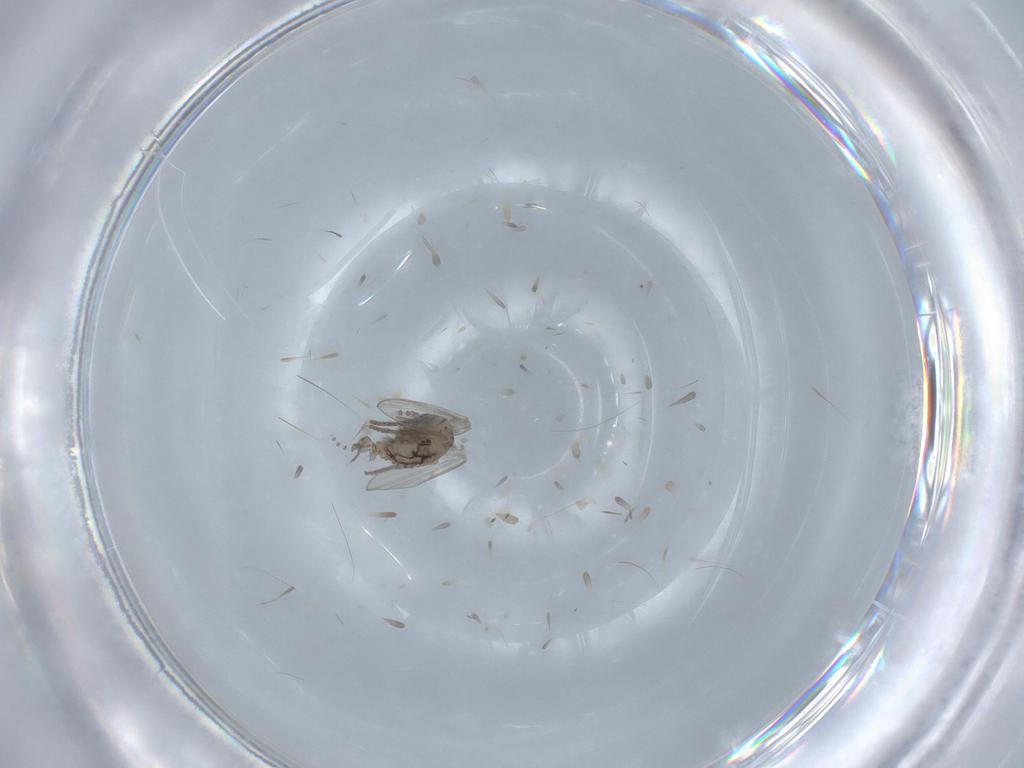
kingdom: Animalia
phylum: Arthropoda
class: Insecta
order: Diptera
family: Psychodidae
